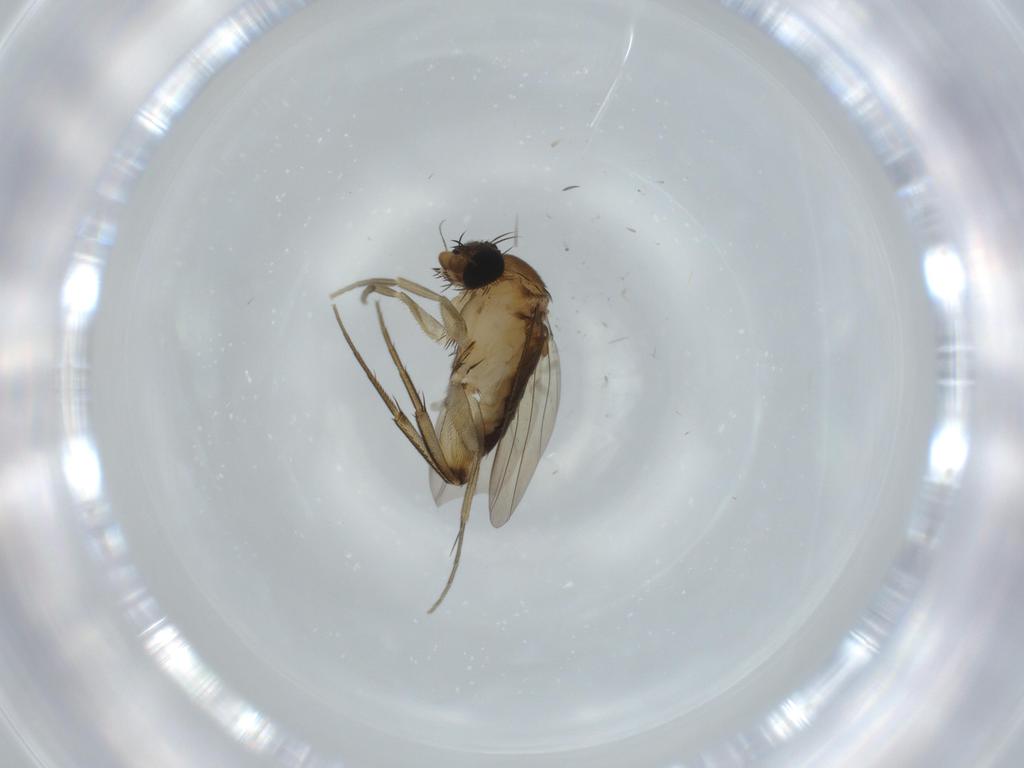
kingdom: Animalia
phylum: Arthropoda
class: Insecta
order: Diptera
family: Phoridae
